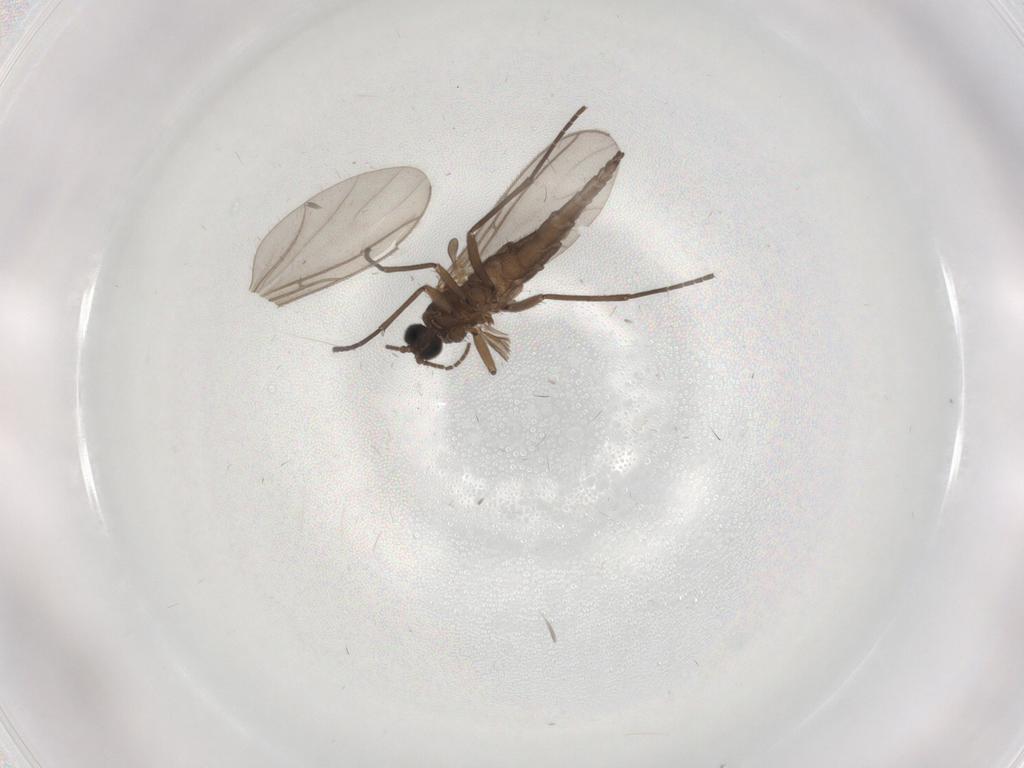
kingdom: Animalia
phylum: Arthropoda
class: Insecta
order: Diptera
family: Sciaridae
